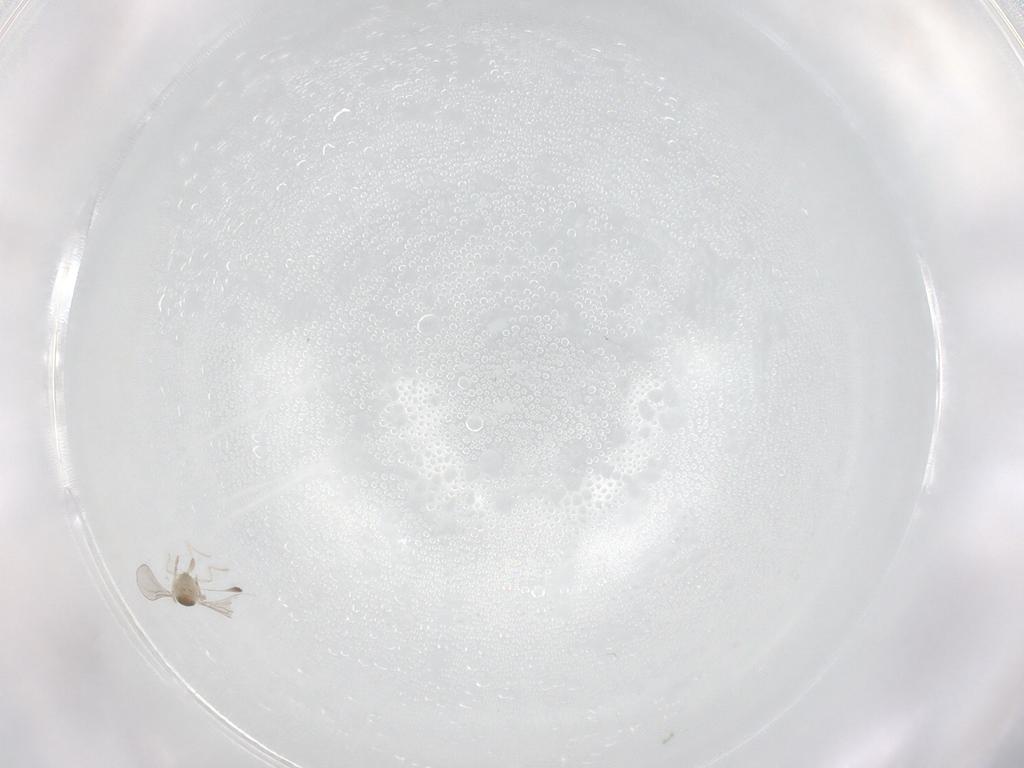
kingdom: Animalia
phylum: Arthropoda
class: Insecta
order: Diptera
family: Cecidomyiidae
